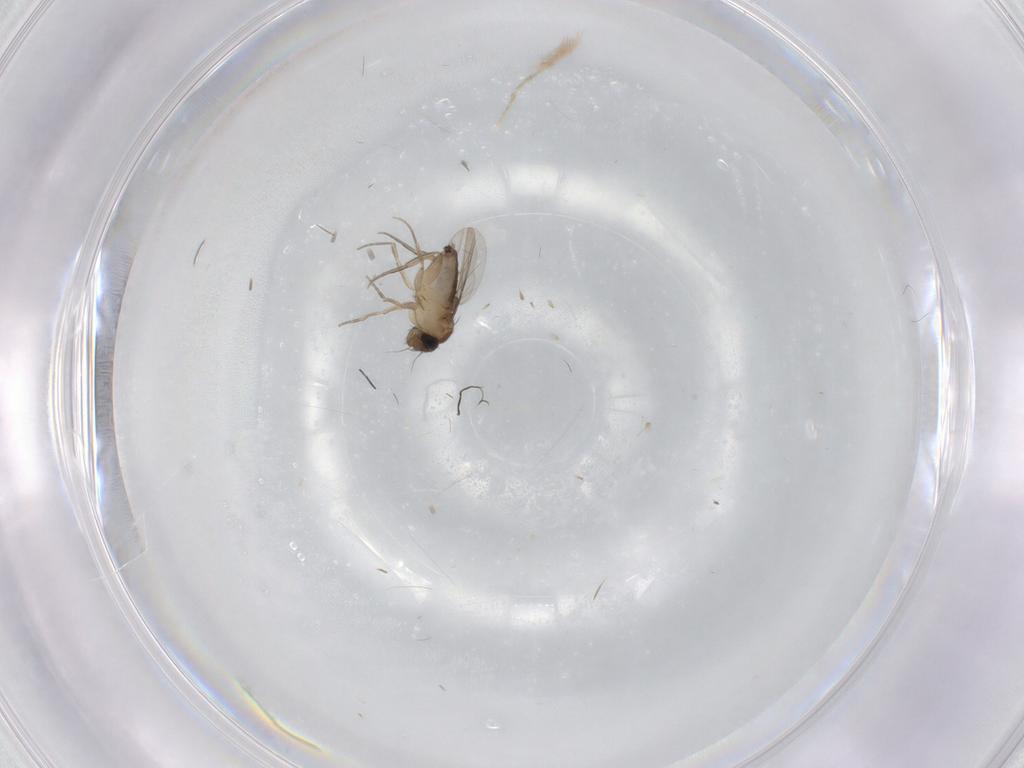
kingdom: Animalia
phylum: Arthropoda
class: Insecta
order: Diptera
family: Phoridae
